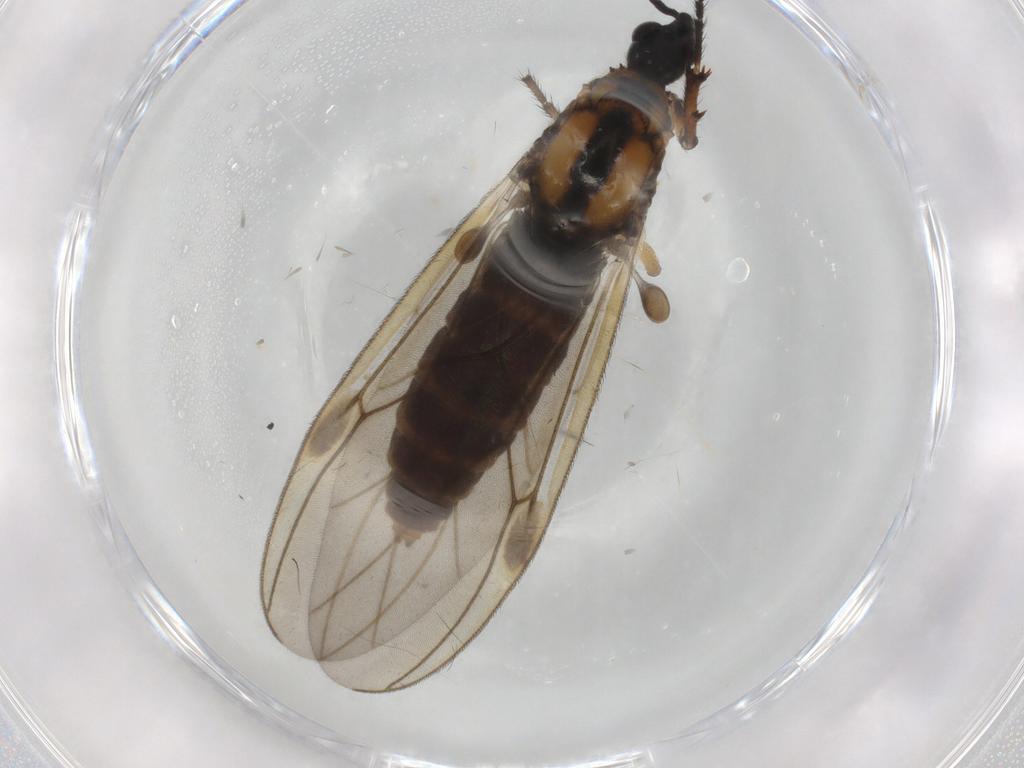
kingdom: Animalia
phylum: Arthropoda
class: Insecta
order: Diptera
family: Bibionidae
